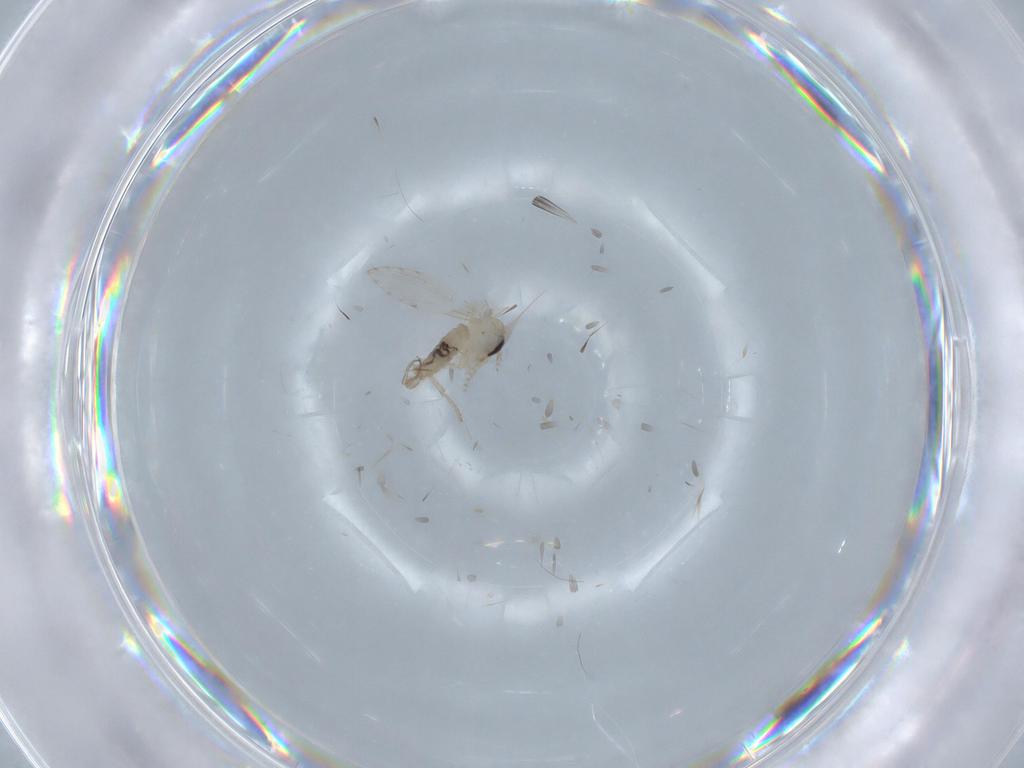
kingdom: Animalia
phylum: Arthropoda
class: Insecta
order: Diptera
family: Psychodidae
